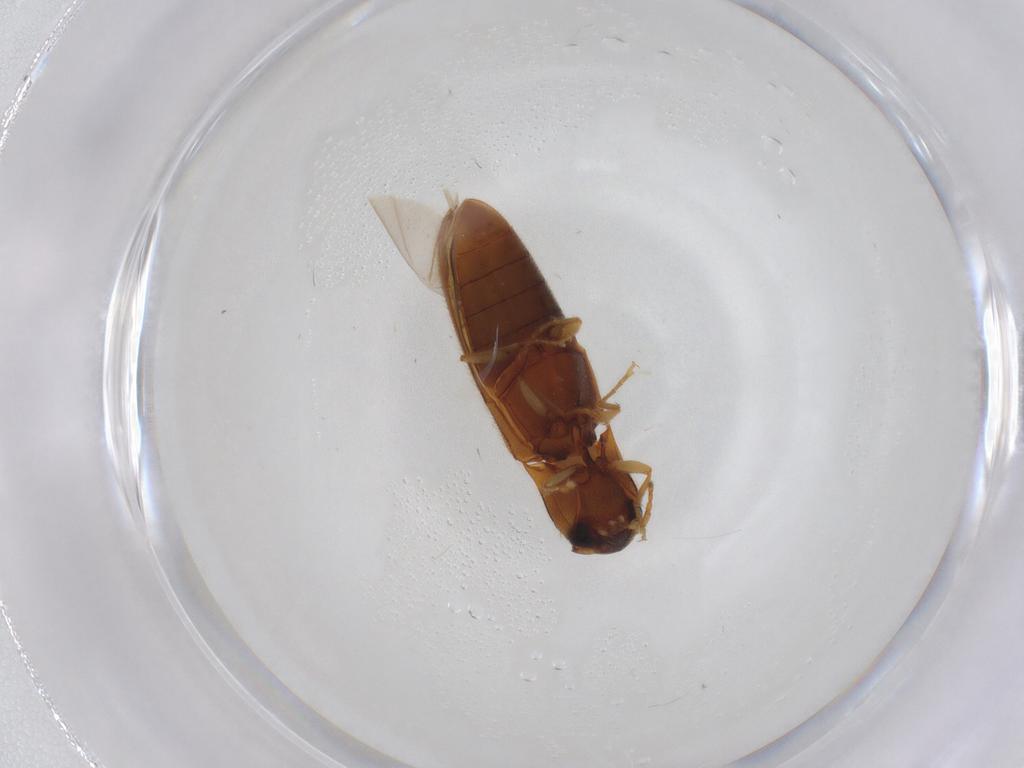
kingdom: Animalia
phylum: Arthropoda
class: Insecta
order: Coleoptera
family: Elateridae
